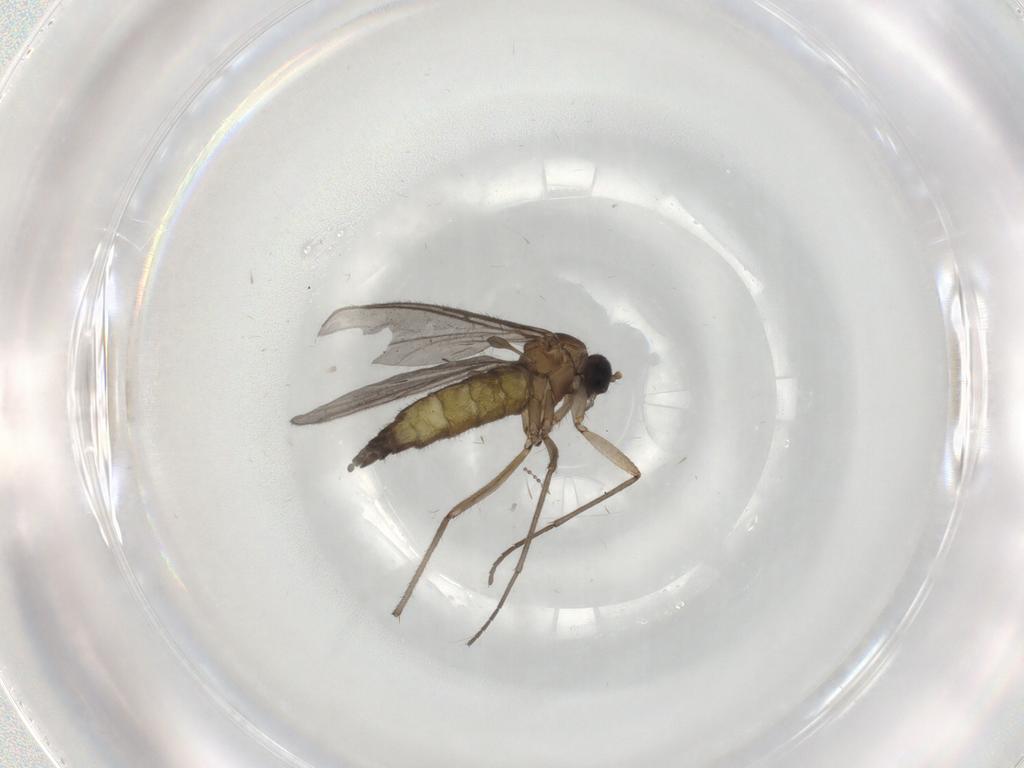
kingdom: Animalia
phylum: Arthropoda
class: Insecta
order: Diptera
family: Sciaridae
